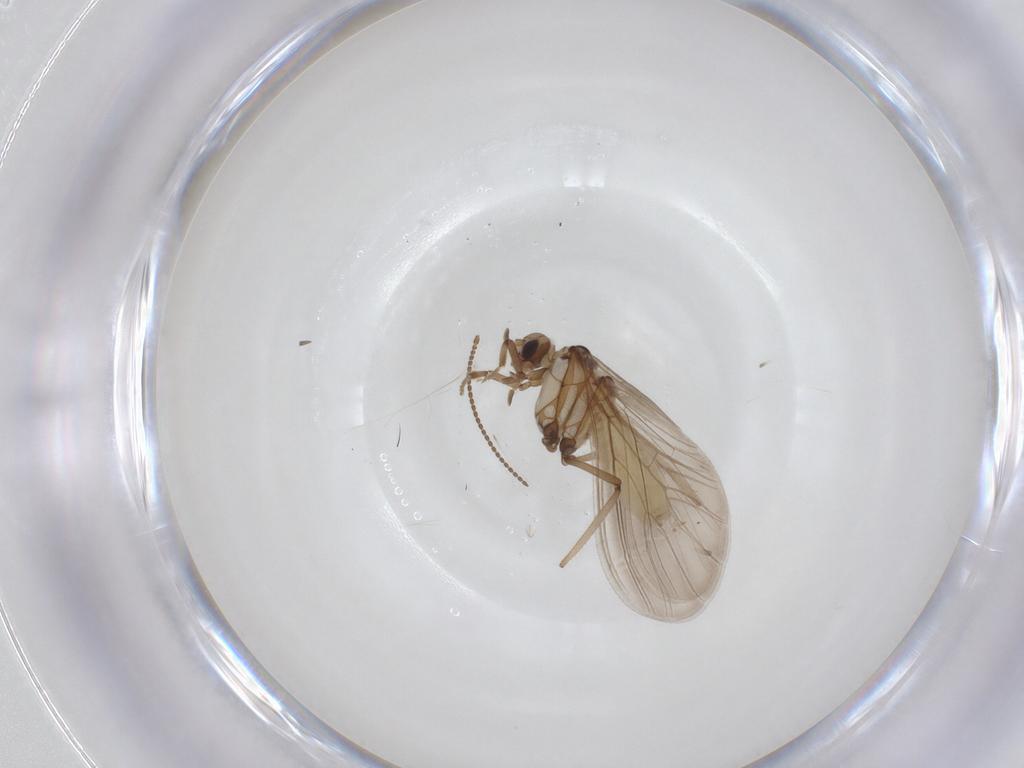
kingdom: Animalia
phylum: Arthropoda
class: Insecta
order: Neuroptera
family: Coniopterygidae
